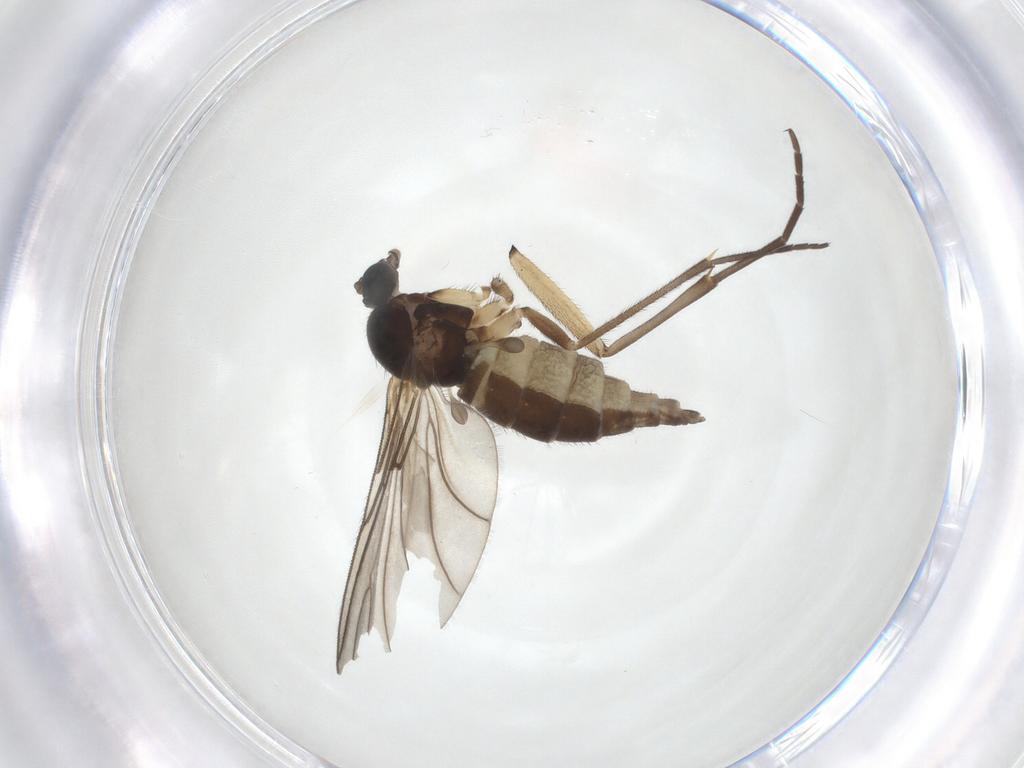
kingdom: Animalia
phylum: Arthropoda
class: Insecta
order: Diptera
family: Sciaridae
